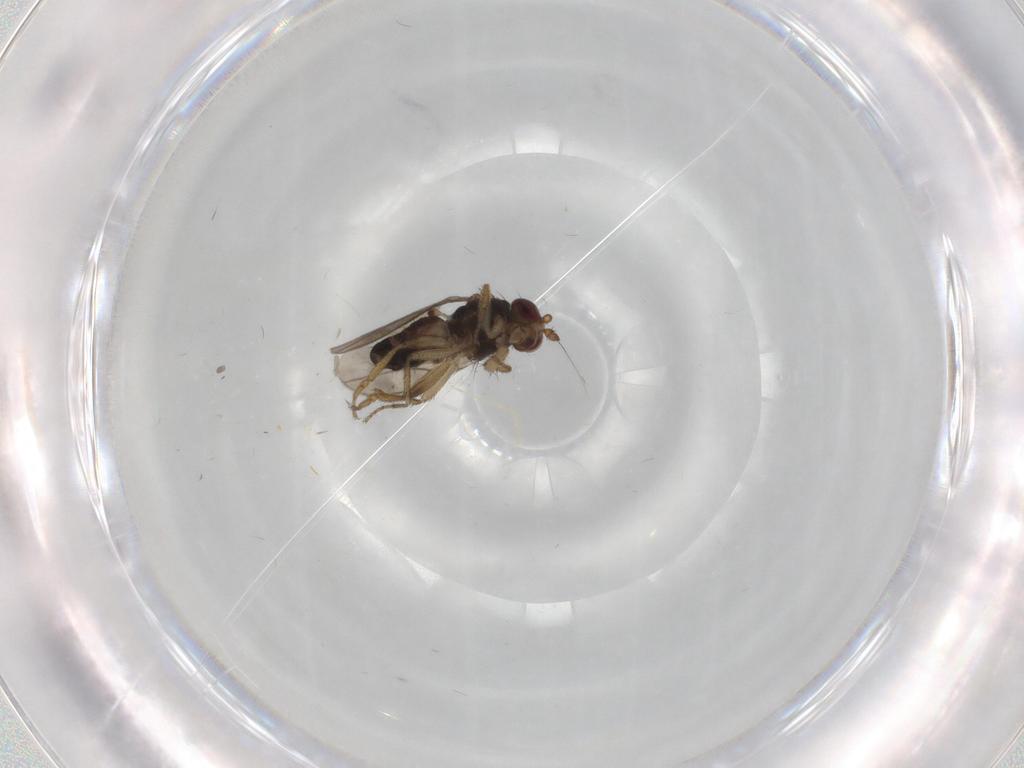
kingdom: Animalia
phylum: Arthropoda
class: Insecta
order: Diptera
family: Sphaeroceridae
